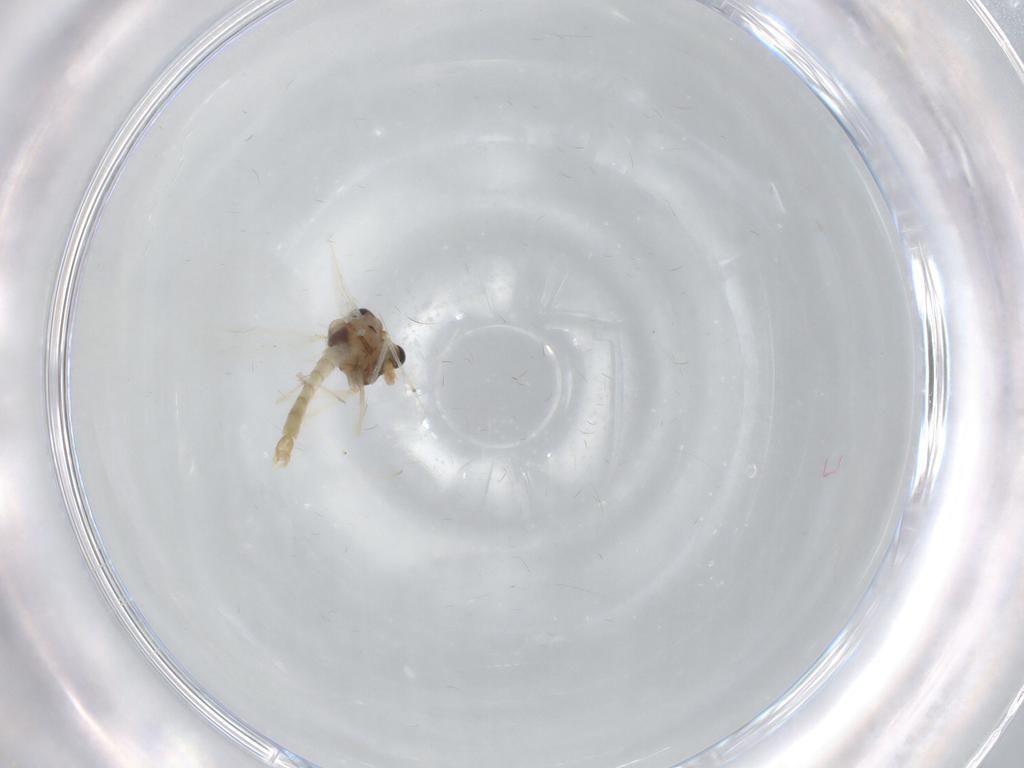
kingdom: Animalia
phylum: Arthropoda
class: Insecta
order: Diptera
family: Chironomidae
